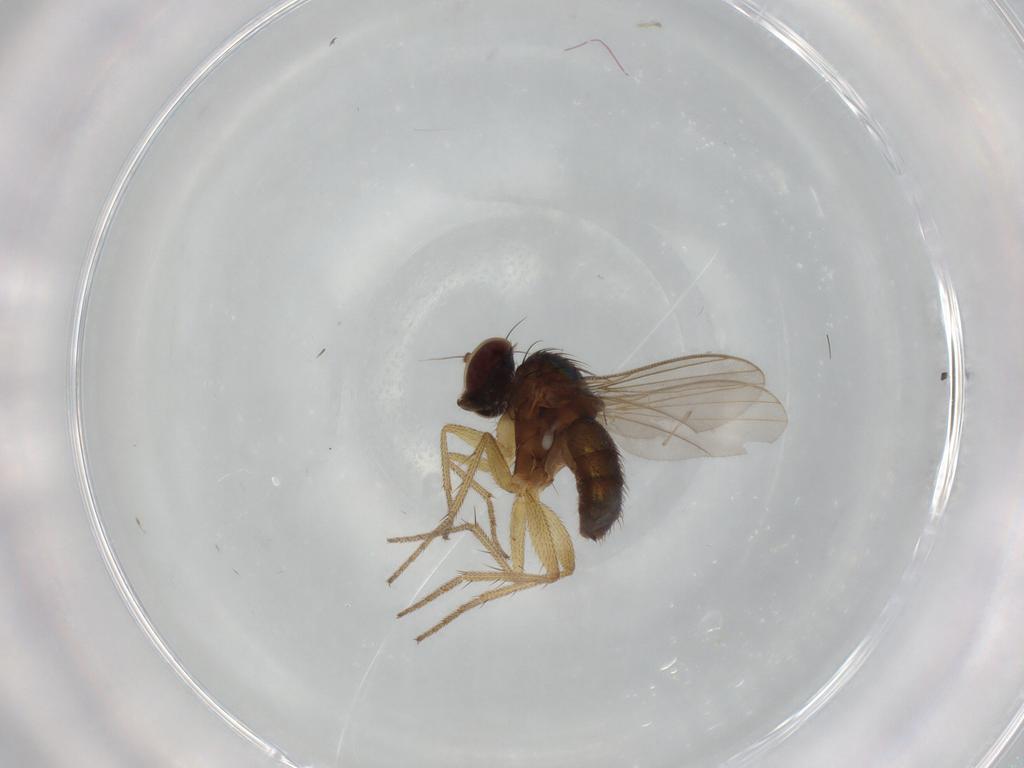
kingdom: Animalia
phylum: Arthropoda
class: Insecta
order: Diptera
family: Dolichopodidae
